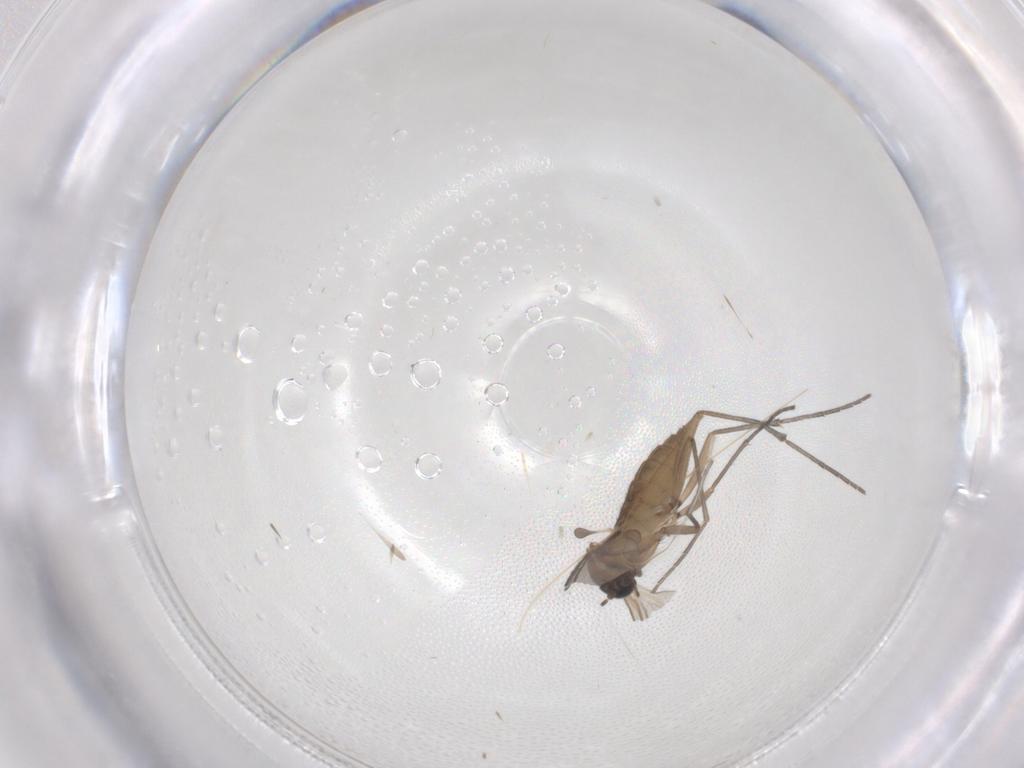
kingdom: Animalia
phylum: Arthropoda
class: Insecta
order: Diptera
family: Sciaridae
